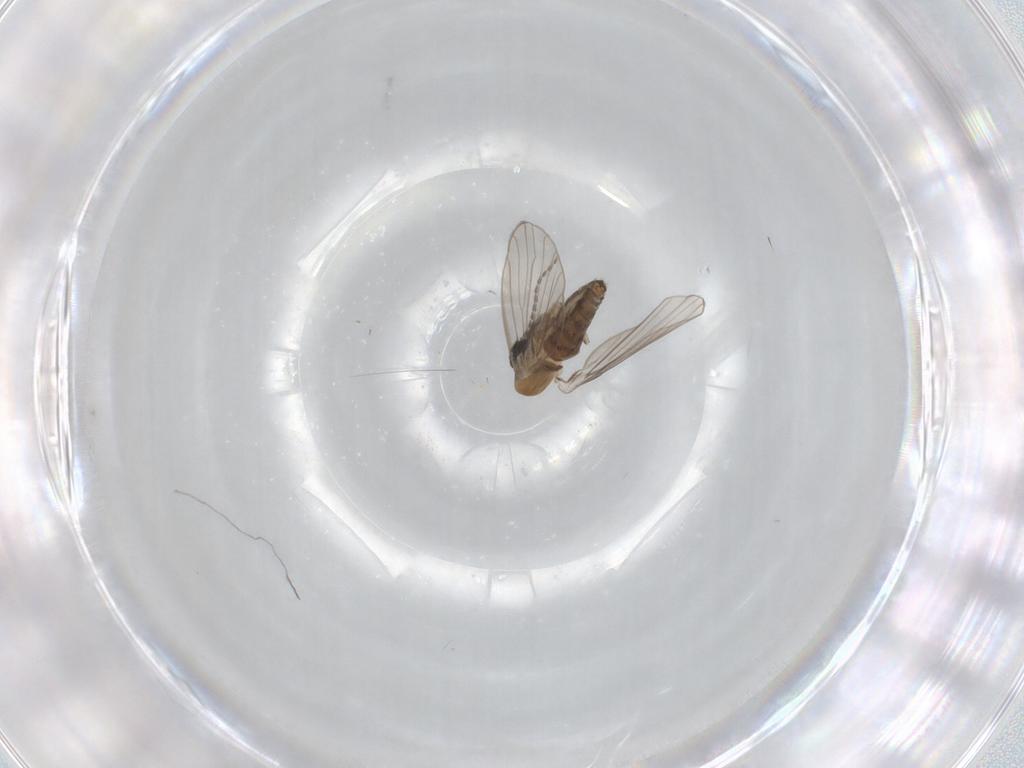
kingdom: Animalia
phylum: Arthropoda
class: Insecta
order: Diptera
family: Psychodidae
